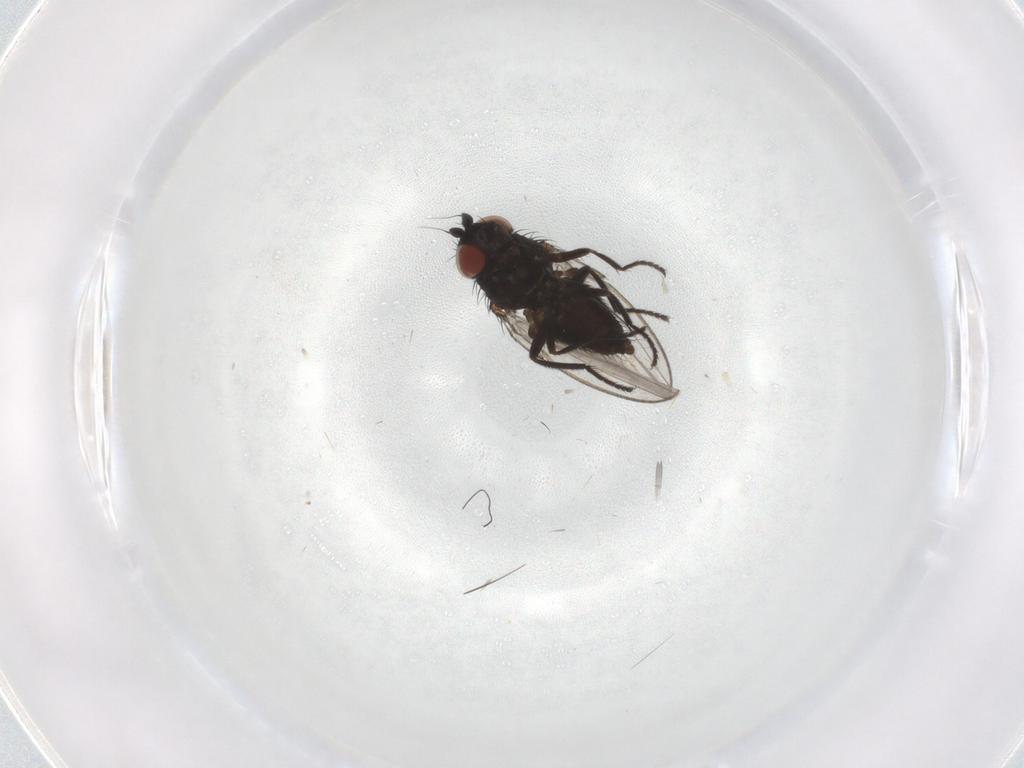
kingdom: Animalia
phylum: Arthropoda
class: Insecta
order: Diptera
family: Milichiidae
